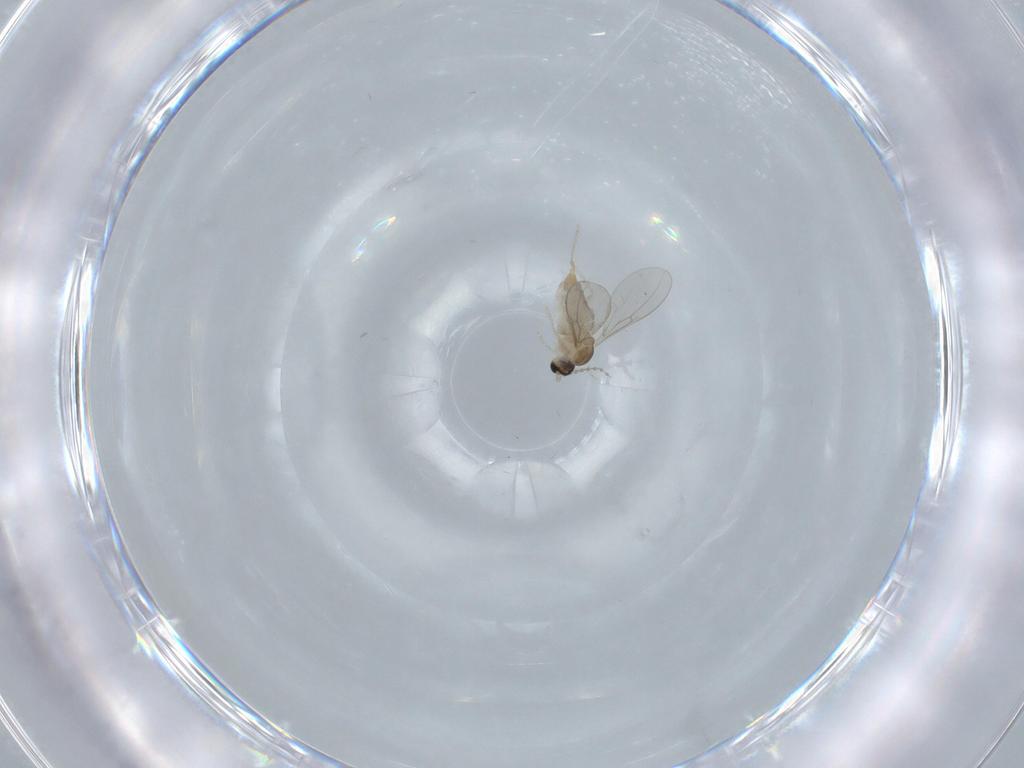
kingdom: Animalia
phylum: Arthropoda
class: Insecta
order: Diptera
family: Cecidomyiidae
